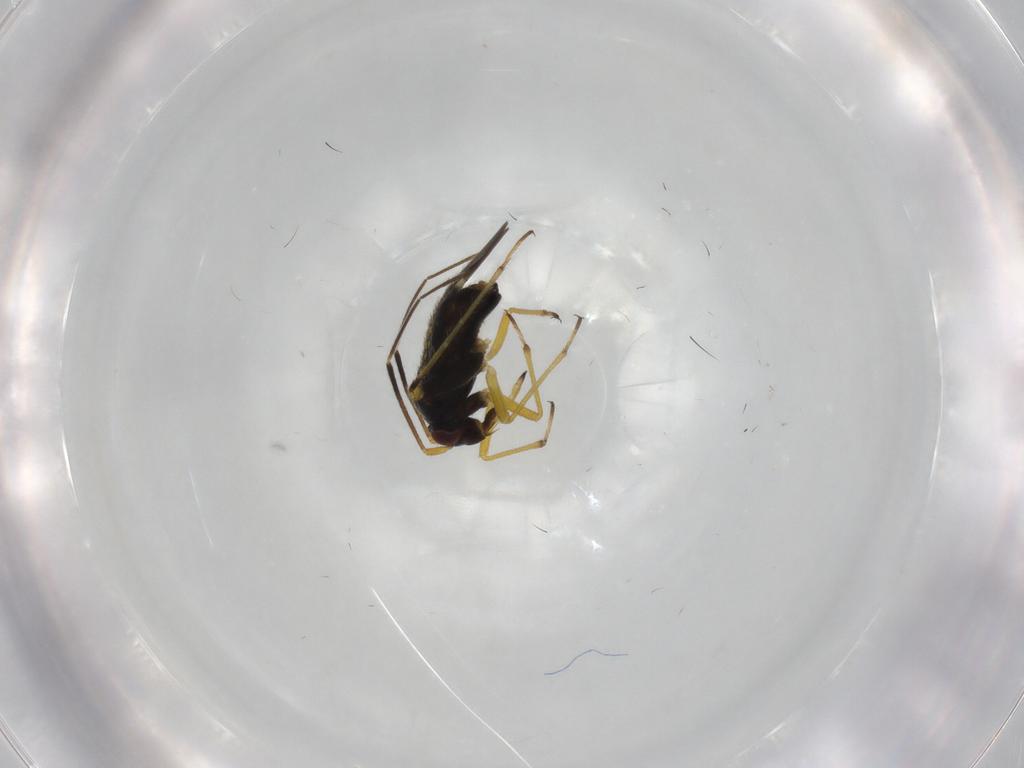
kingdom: Animalia
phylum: Arthropoda
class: Insecta
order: Hemiptera
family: Miridae
